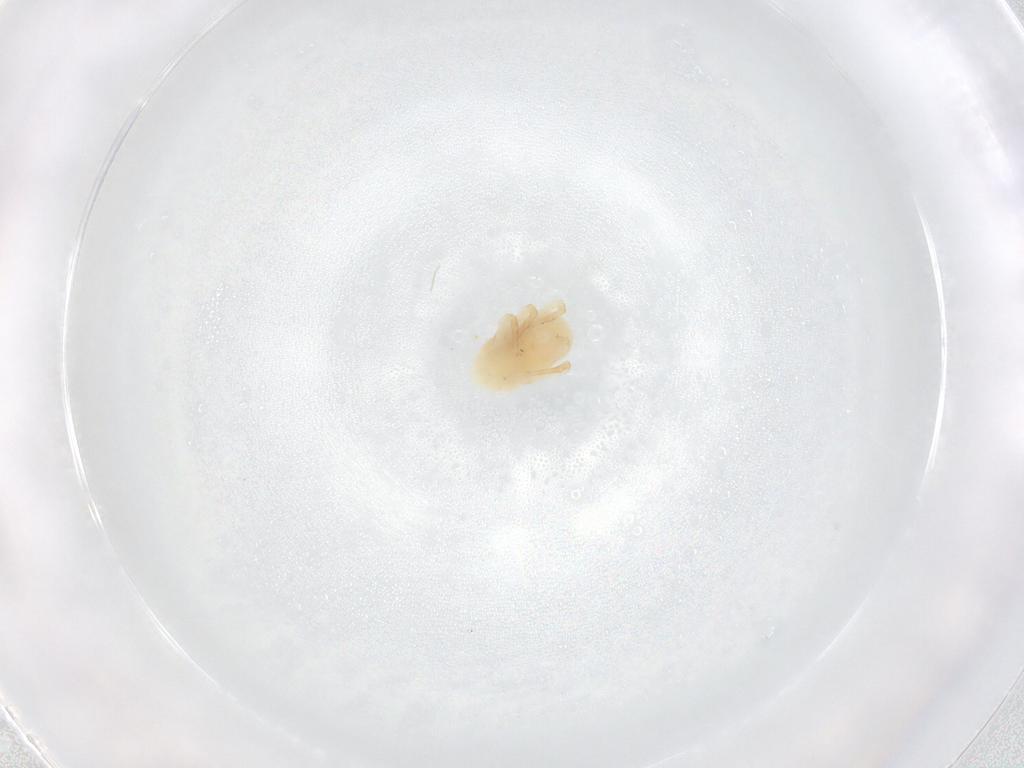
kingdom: Animalia
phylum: Arthropoda
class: Arachnida
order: Trombidiformes
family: Bdellidae
